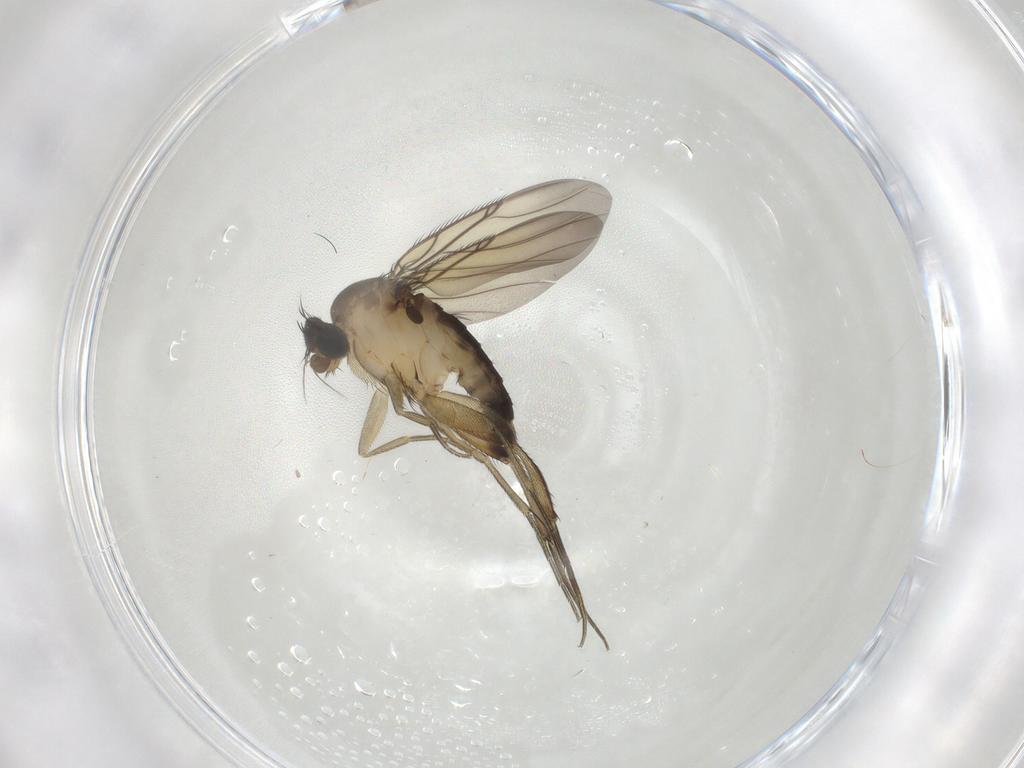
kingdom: Animalia
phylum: Arthropoda
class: Insecta
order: Diptera
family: Phoridae
